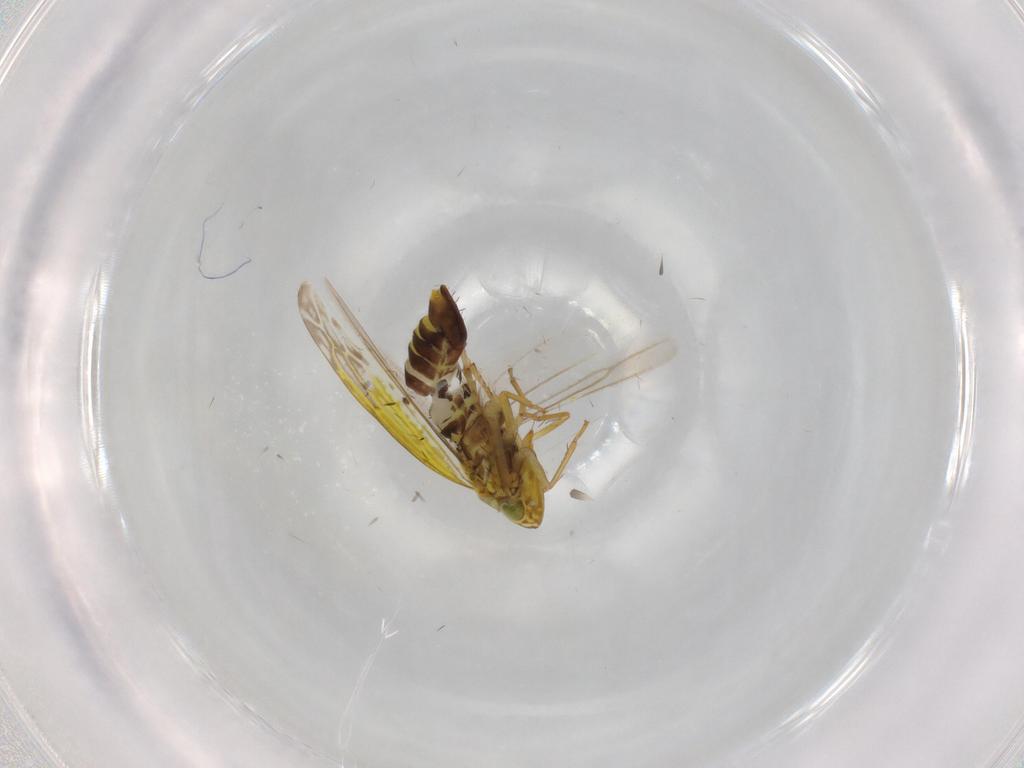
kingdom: Animalia
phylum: Arthropoda
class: Insecta
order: Hemiptera
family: Cicadellidae
